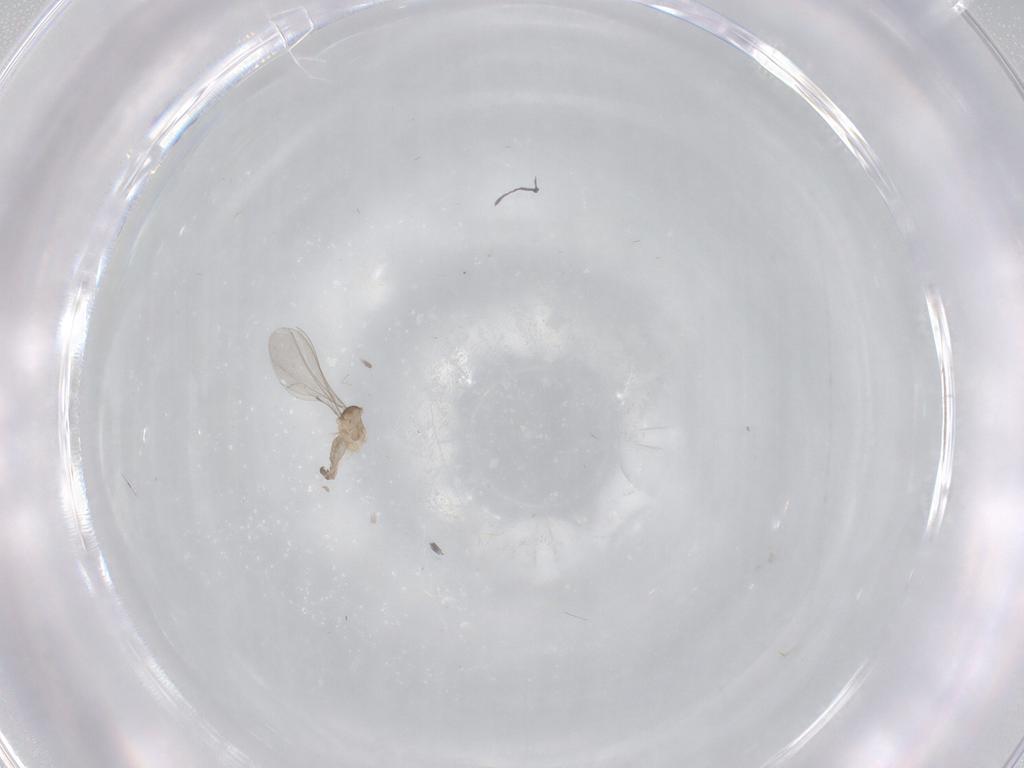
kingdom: Animalia
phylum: Arthropoda
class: Insecta
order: Diptera
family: Cecidomyiidae
